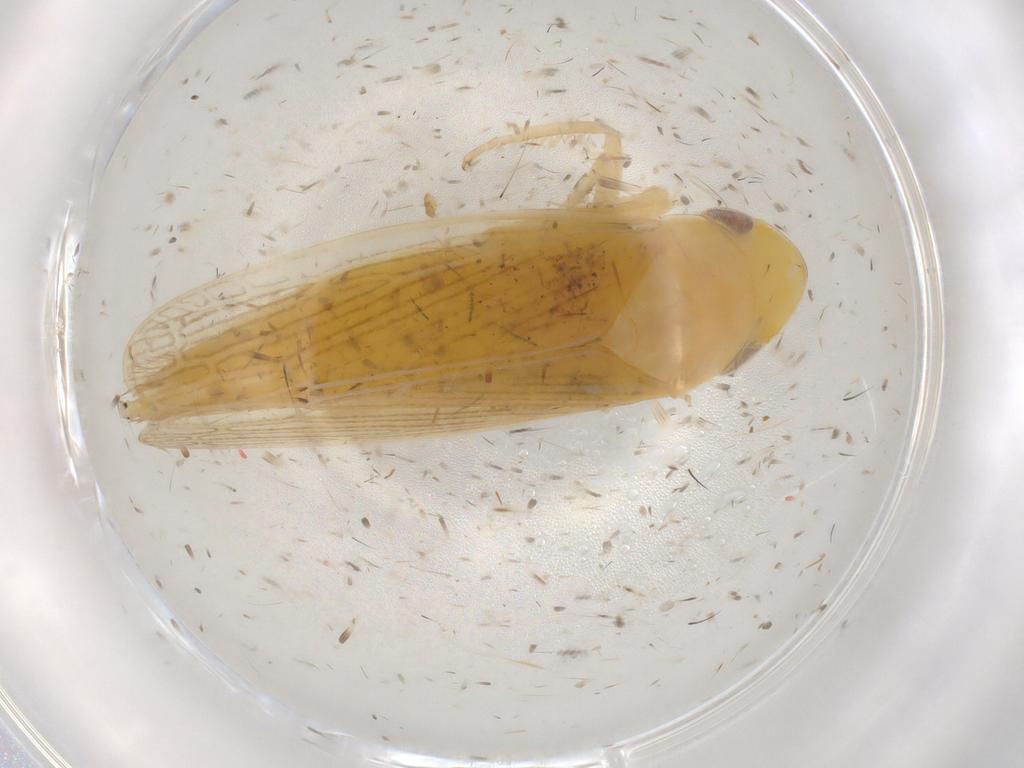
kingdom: Animalia
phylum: Arthropoda
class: Insecta
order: Hemiptera
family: Cicadellidae
